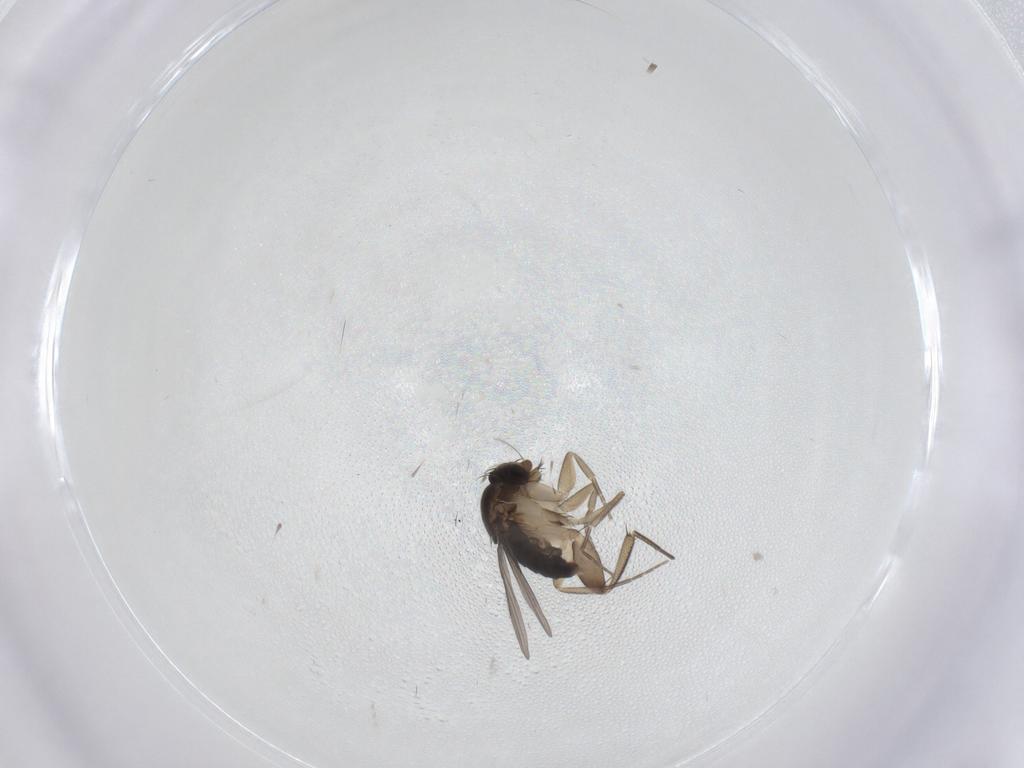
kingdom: Animalia
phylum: Arthropoda
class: Insecta
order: Diptera
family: Phoridae
